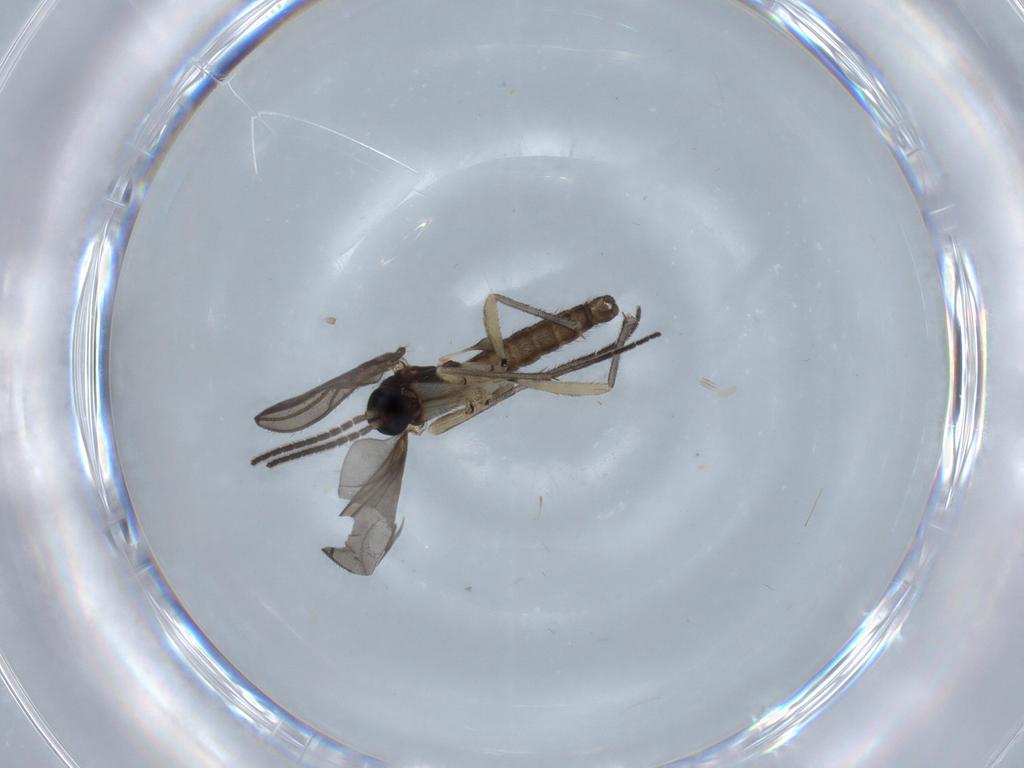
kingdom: Animalia
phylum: Arthropoda
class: Insecta
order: Diptera
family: Sciaridae
